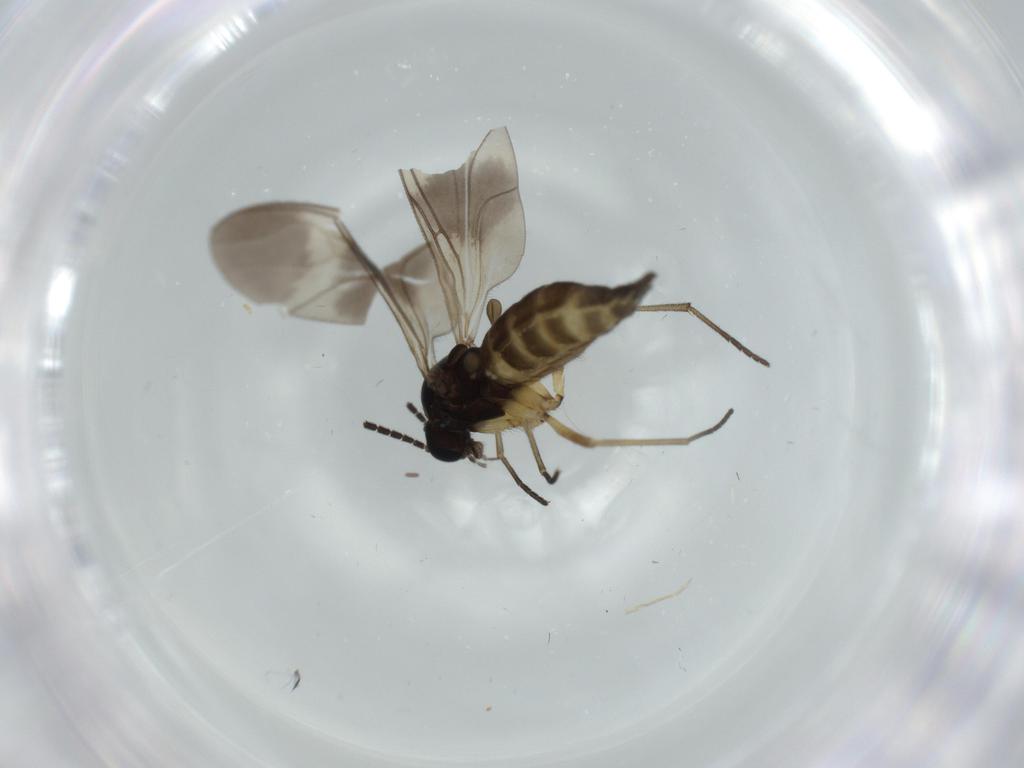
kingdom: Animalia
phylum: Arthropoda
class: Insecta
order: Diptera
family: Sciaridae
